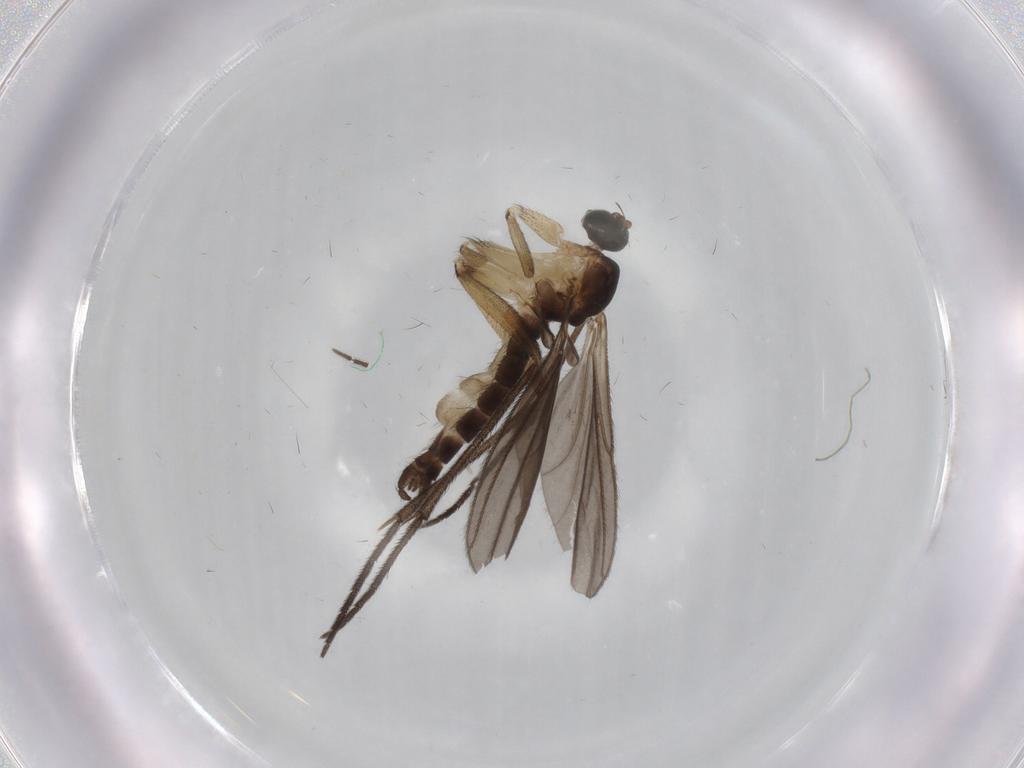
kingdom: Animalia
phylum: Arthropoda
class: Insecta
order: Diptera
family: Sciaridae
